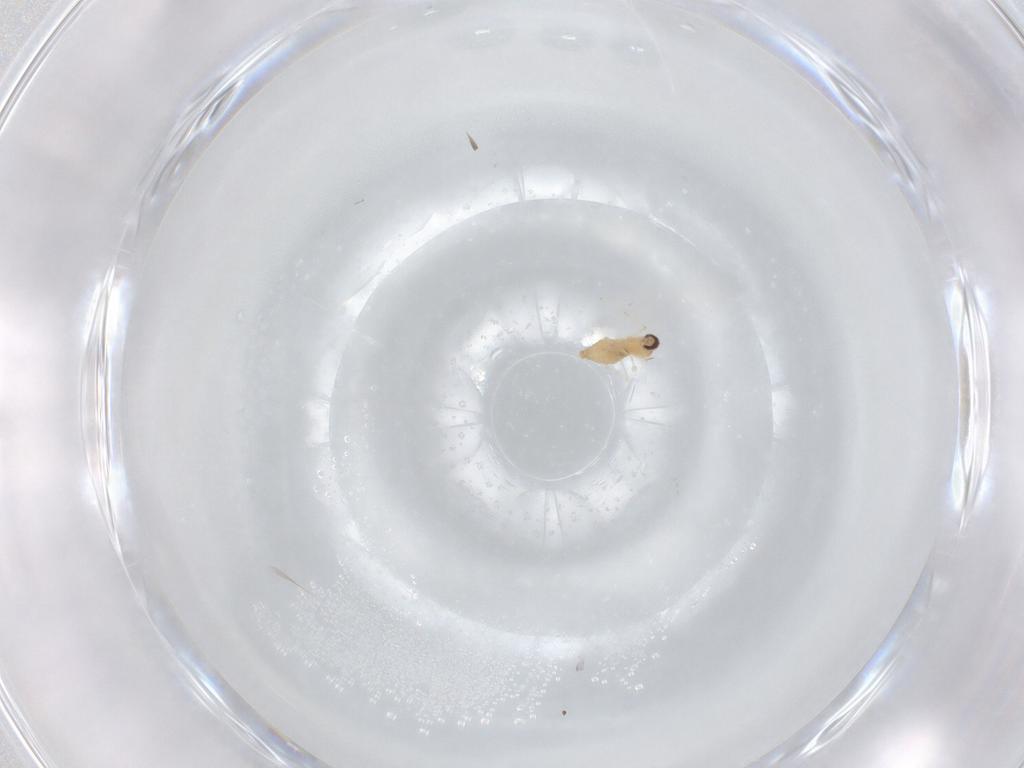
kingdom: Animalia
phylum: Arthropoda
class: Insecta
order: Diptera
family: Cecidomyiidae
